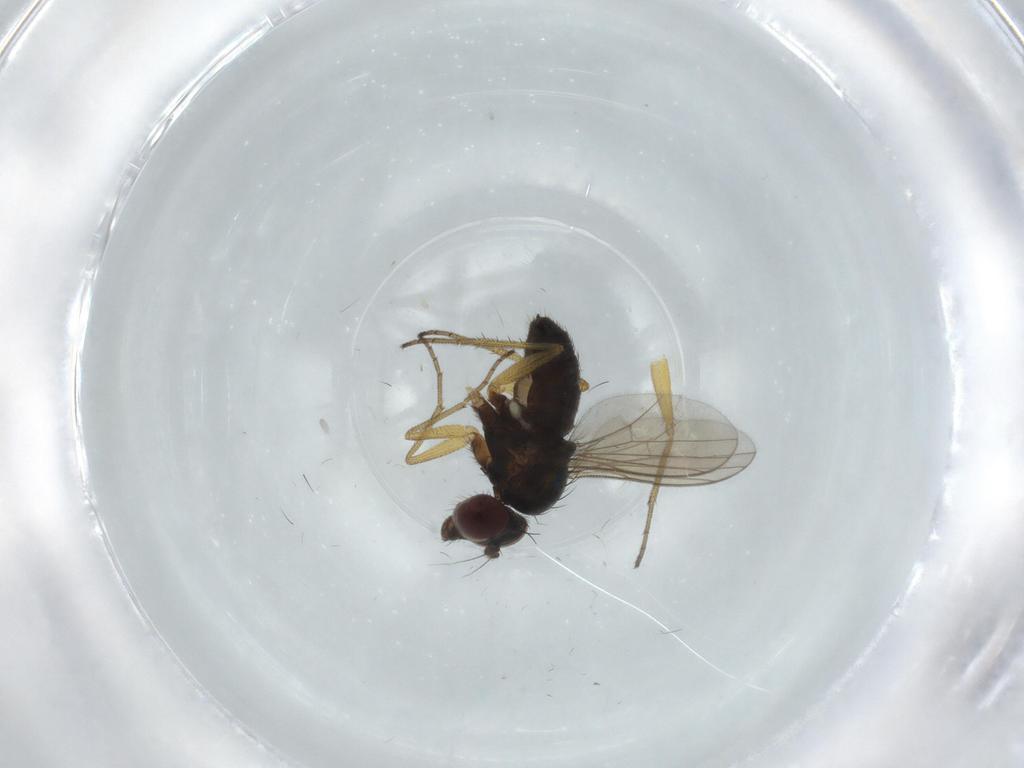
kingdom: Animalia
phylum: Arthropoda
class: Insecta
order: Diptera
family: Dolichopodidae
